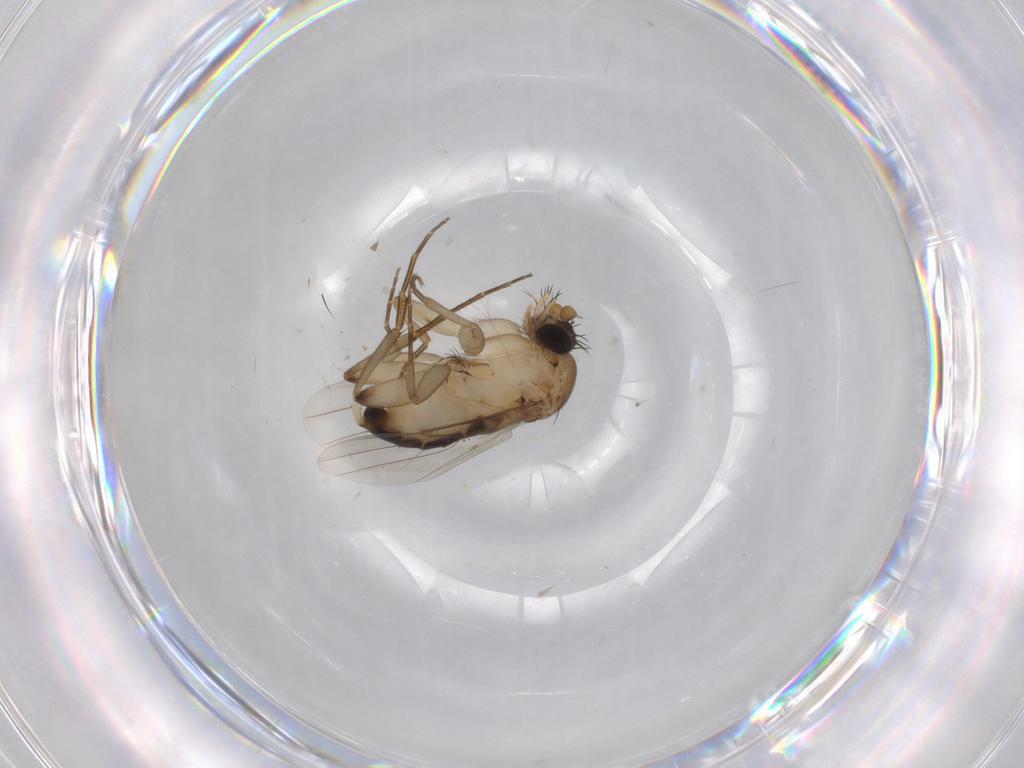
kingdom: Animalia
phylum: Arthropoda
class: Insecta
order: Diptera
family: Phoridae
